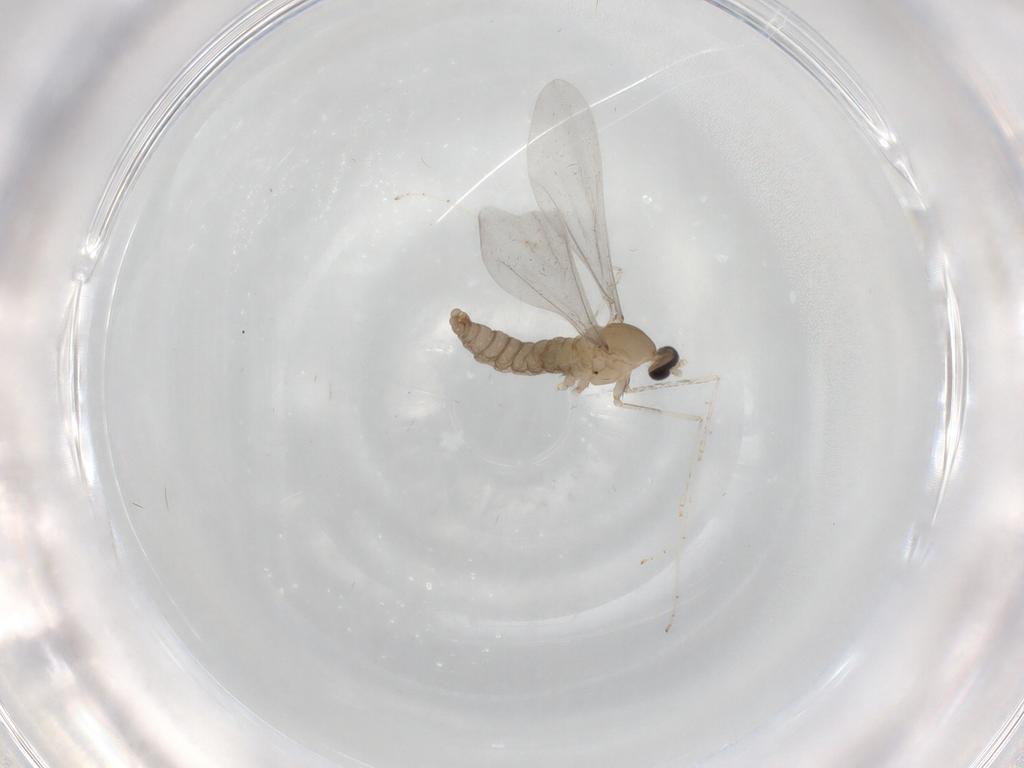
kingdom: Animalia
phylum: Arthropoda
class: Insecta
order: Diptera
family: Cecidomyiidae
